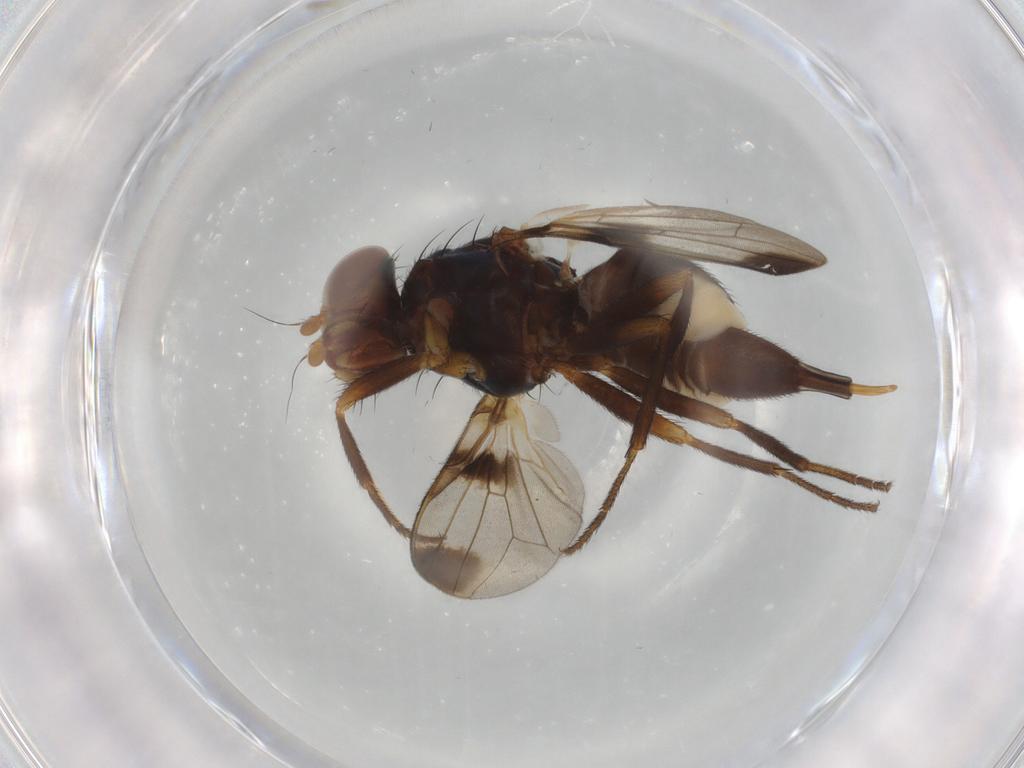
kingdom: Animalia
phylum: Arthropoda
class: Insecta
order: Diptera
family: Ulidiidae
